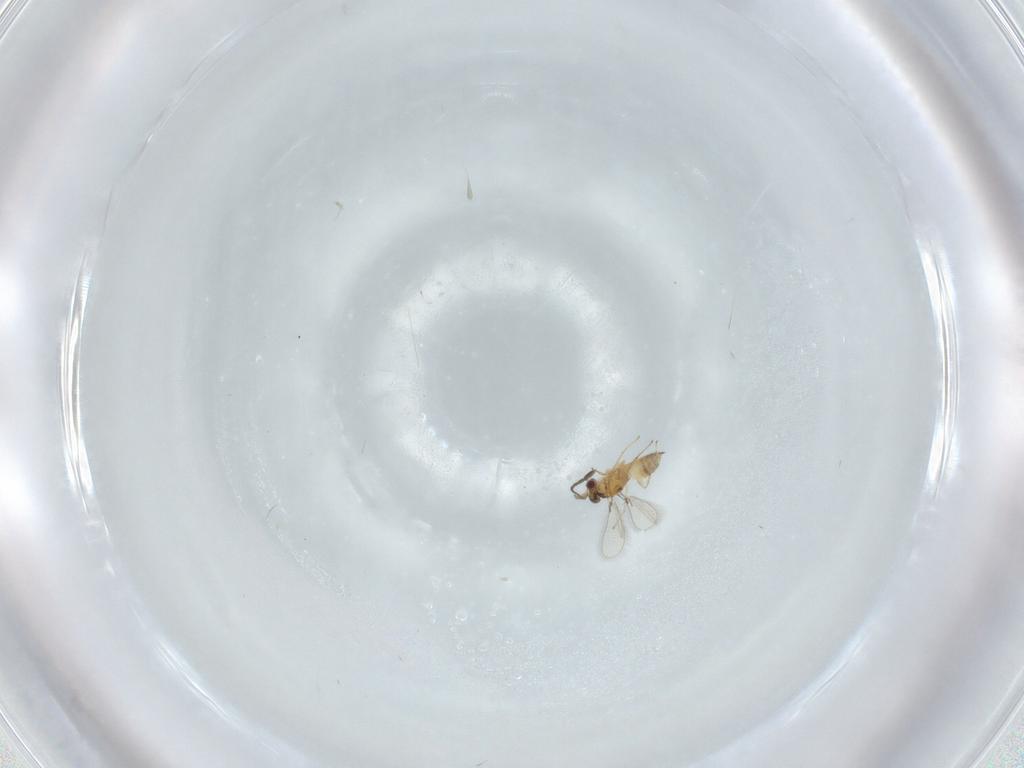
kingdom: Animalia
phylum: Arthropoda
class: Insecta
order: Hymenoptera
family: Mymaridae
